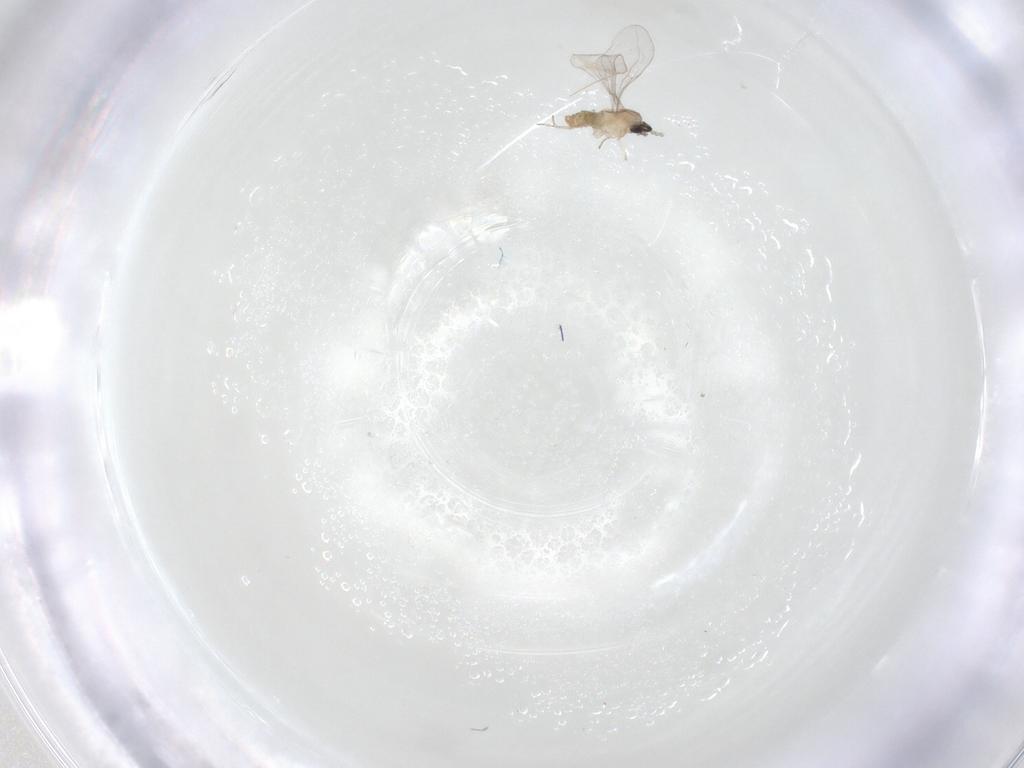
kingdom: Animalia
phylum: Arthropoda
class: Insecta
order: Diptera
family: Cecidomyiidae
